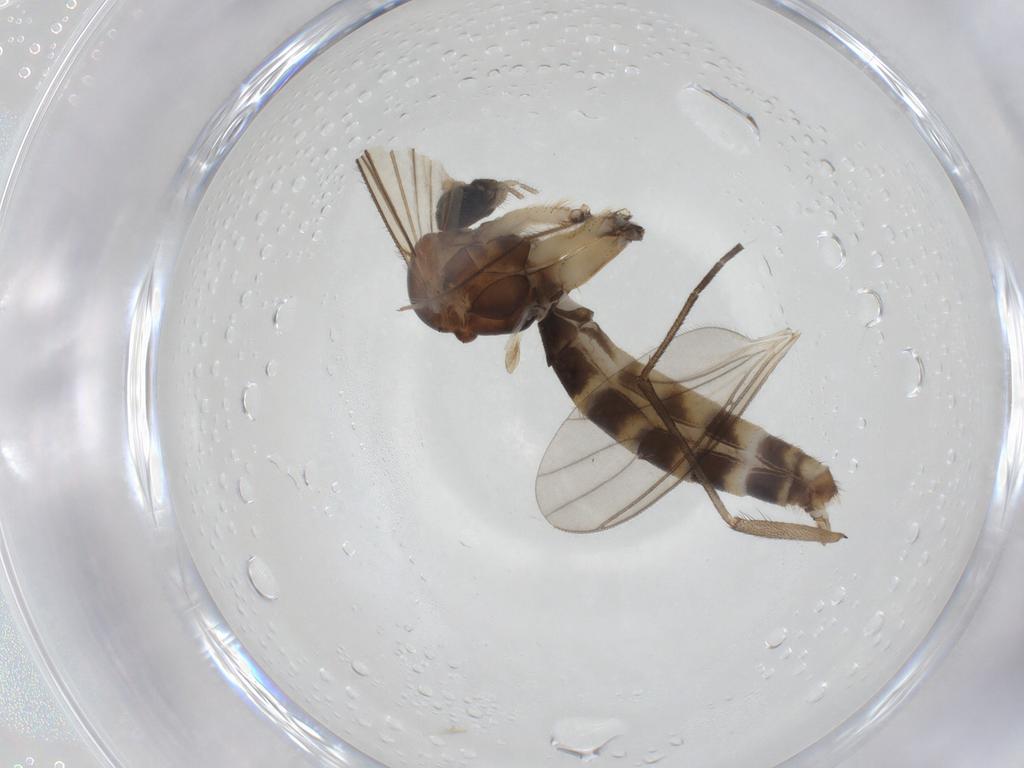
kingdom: Animalia
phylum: Arthropoda
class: Insecta
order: Diptera
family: Mycetophilidae
